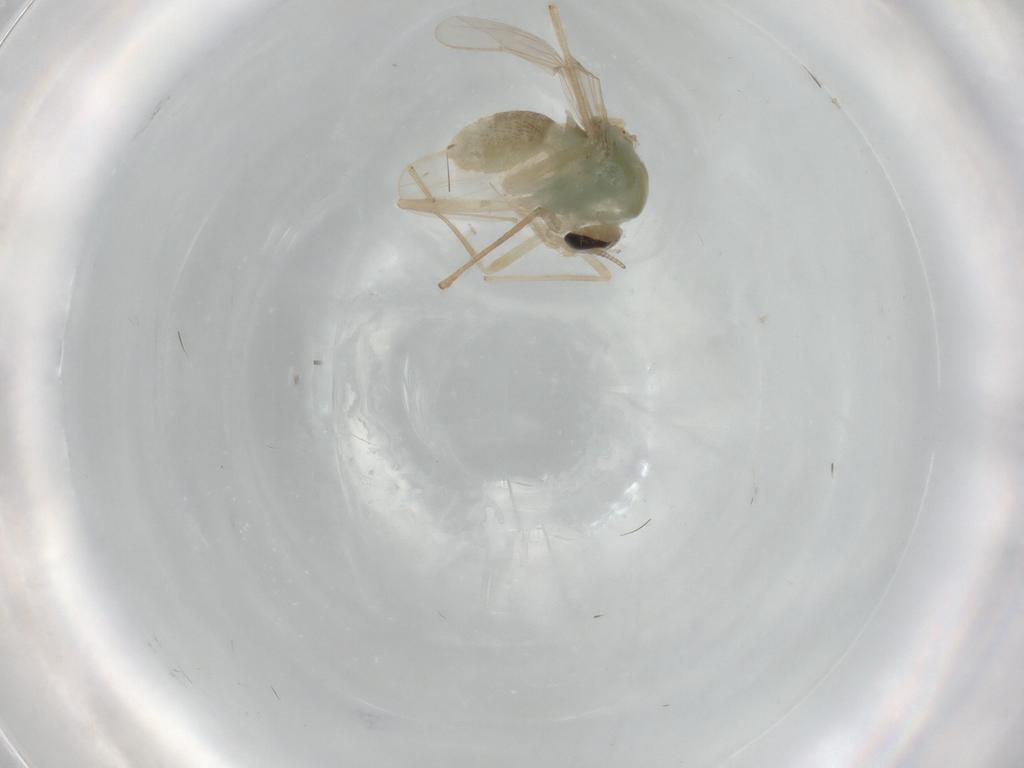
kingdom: Animalia
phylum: Arthropoda
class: Insecta
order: Diptera
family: Chironomidae
